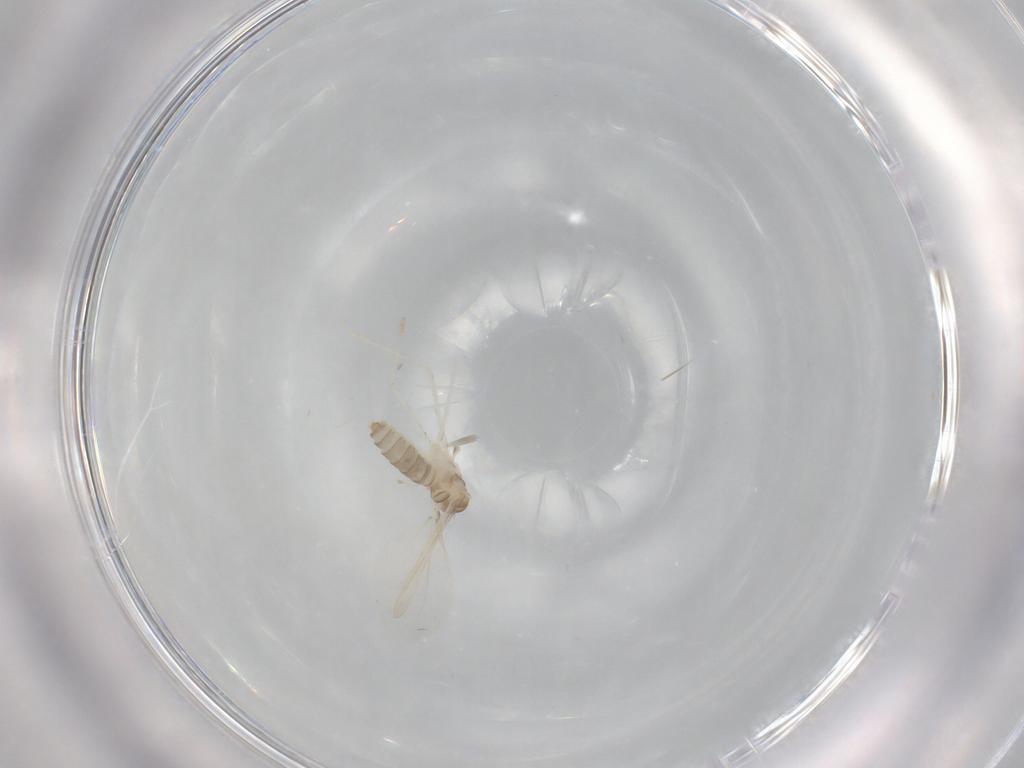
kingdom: Animalia
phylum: Arthropoda
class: Insecta
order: Diptera
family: Cecidomyiidae
